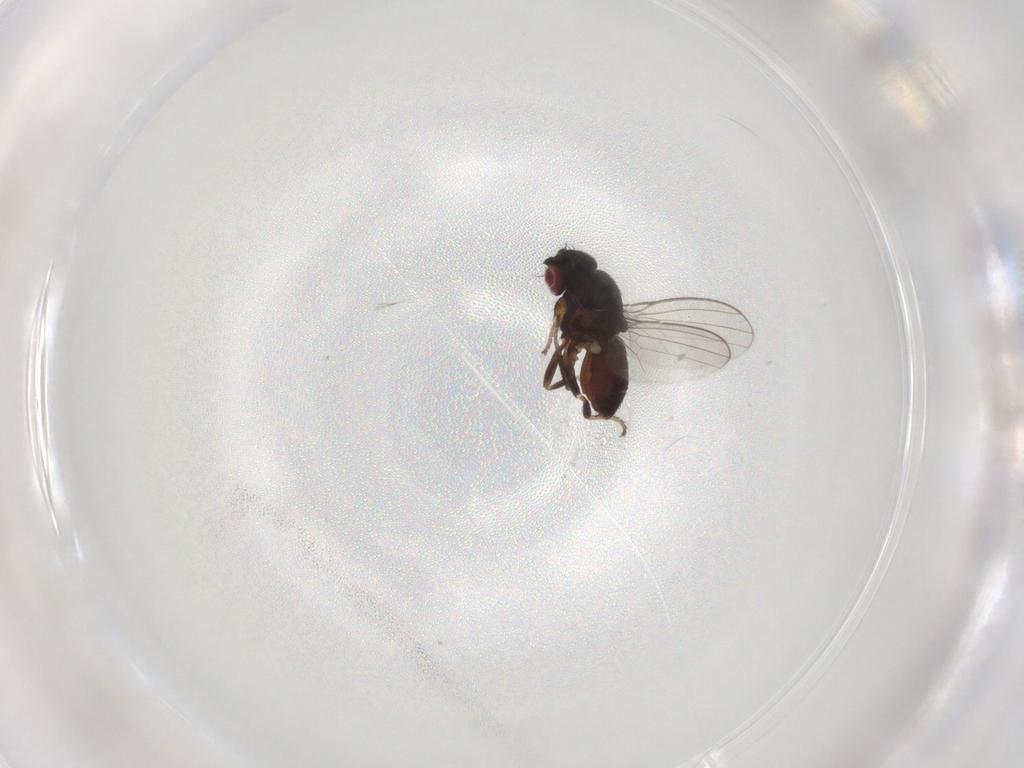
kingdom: Animalia
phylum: Arthropoda
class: Insecta
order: Diptera
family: Milichiidae
